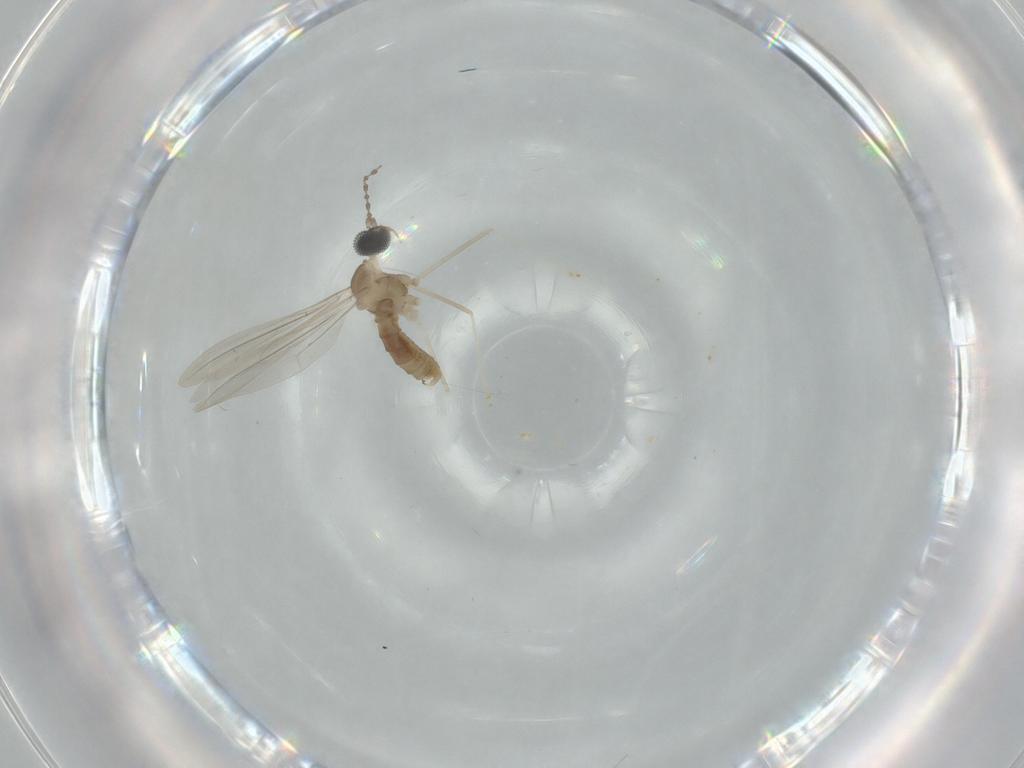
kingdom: Animalia
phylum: Arthropoda
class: Insecta
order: Diptera
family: Cecidomyiidae
